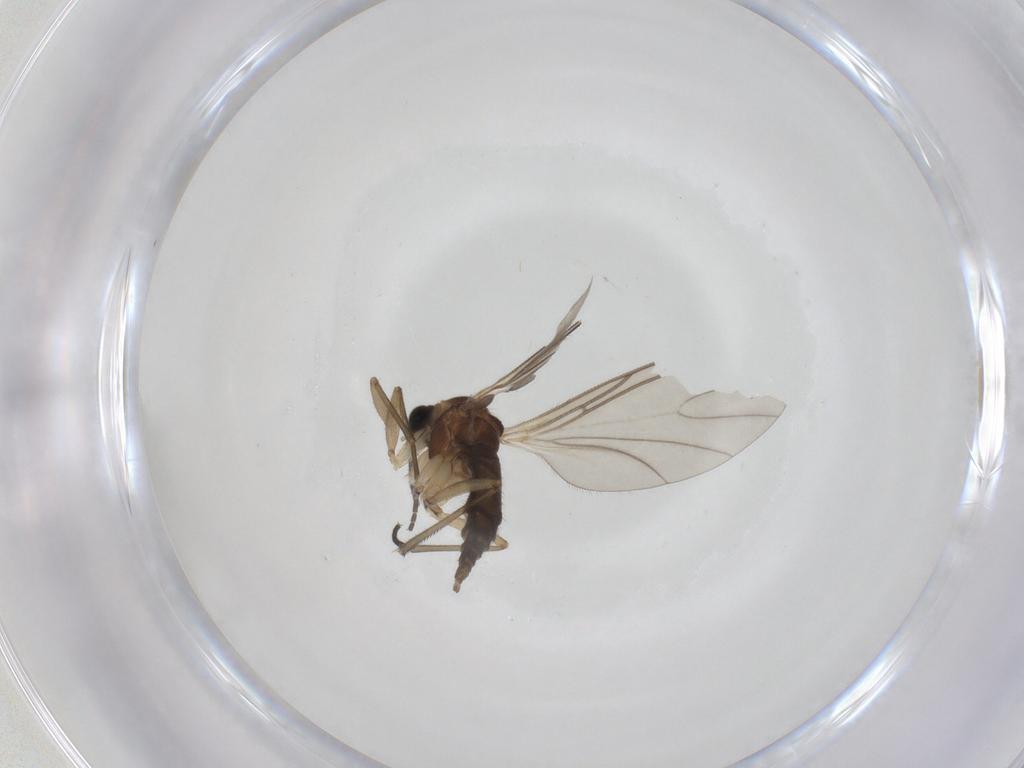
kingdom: Animalia
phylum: Arthropoda
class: Insecta
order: Diptera
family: Sciaridae
